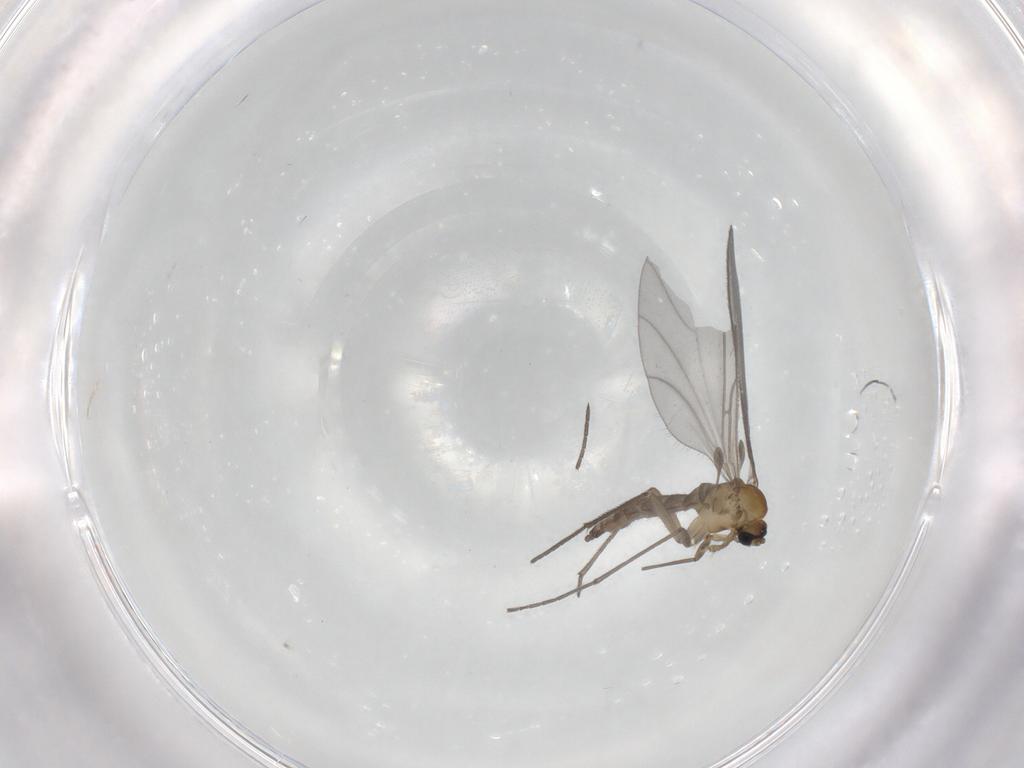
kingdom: Animalia
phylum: Arthropoda
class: Insecta
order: Diptera
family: Sciaridae
